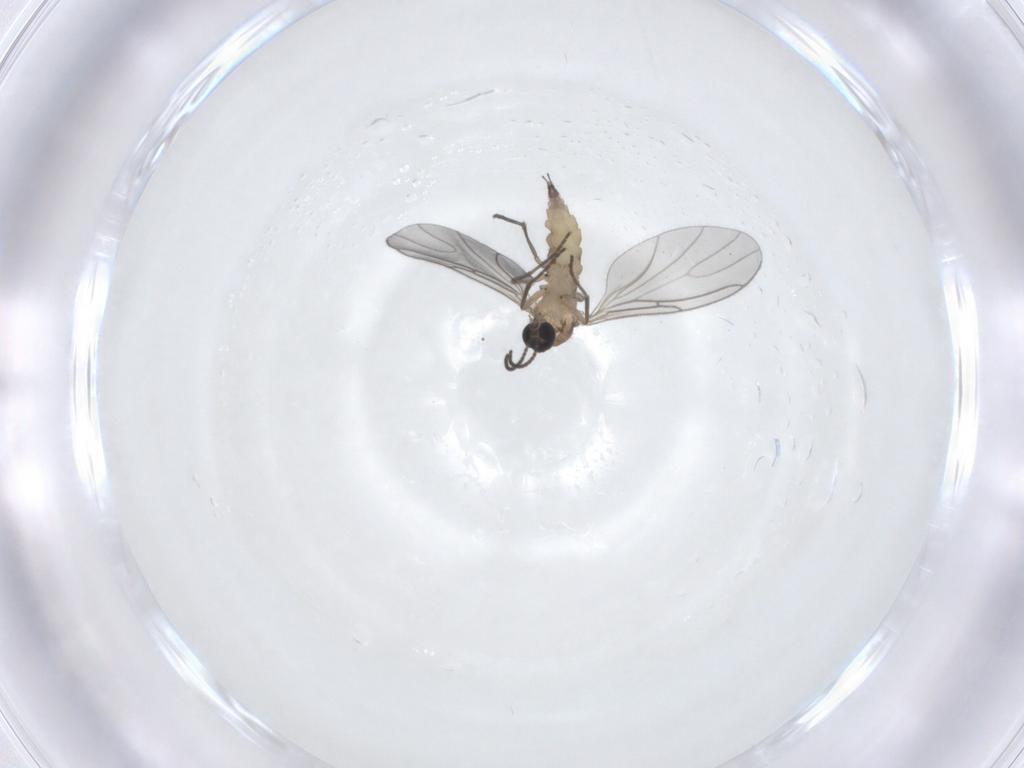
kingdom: Animalia
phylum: Arthropoda
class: Insecta
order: Diptera
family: Sciaridae
